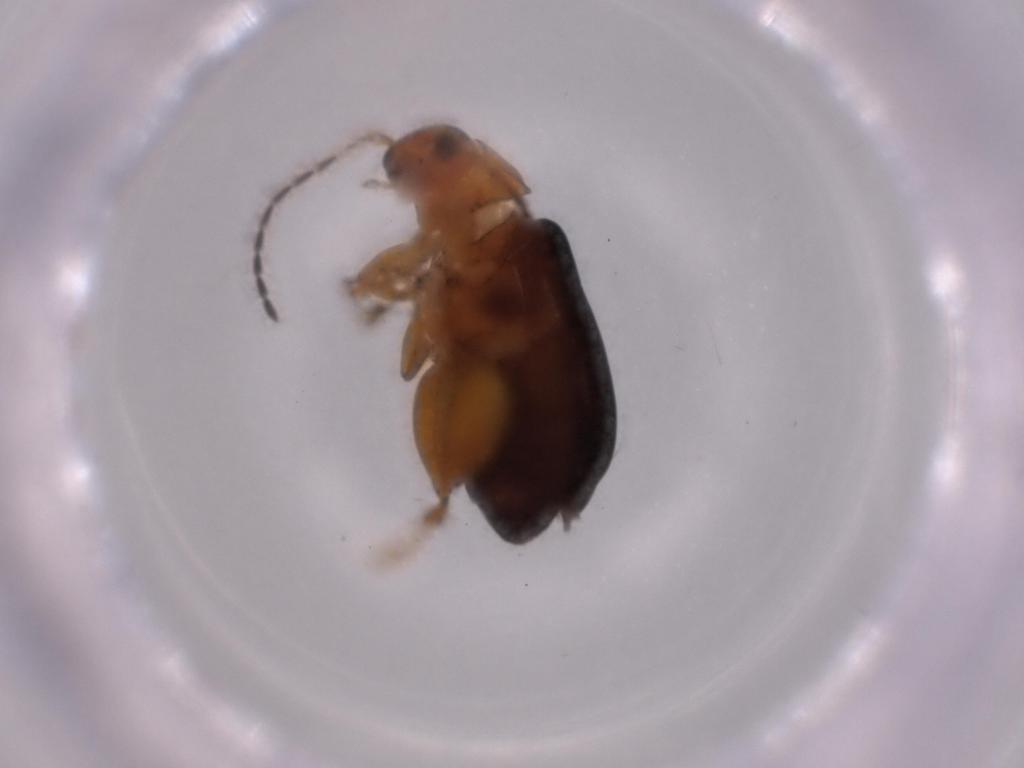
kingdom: Animalia
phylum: Arthropoda
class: Insecta
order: Coleoptera
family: Chrysomelidae
